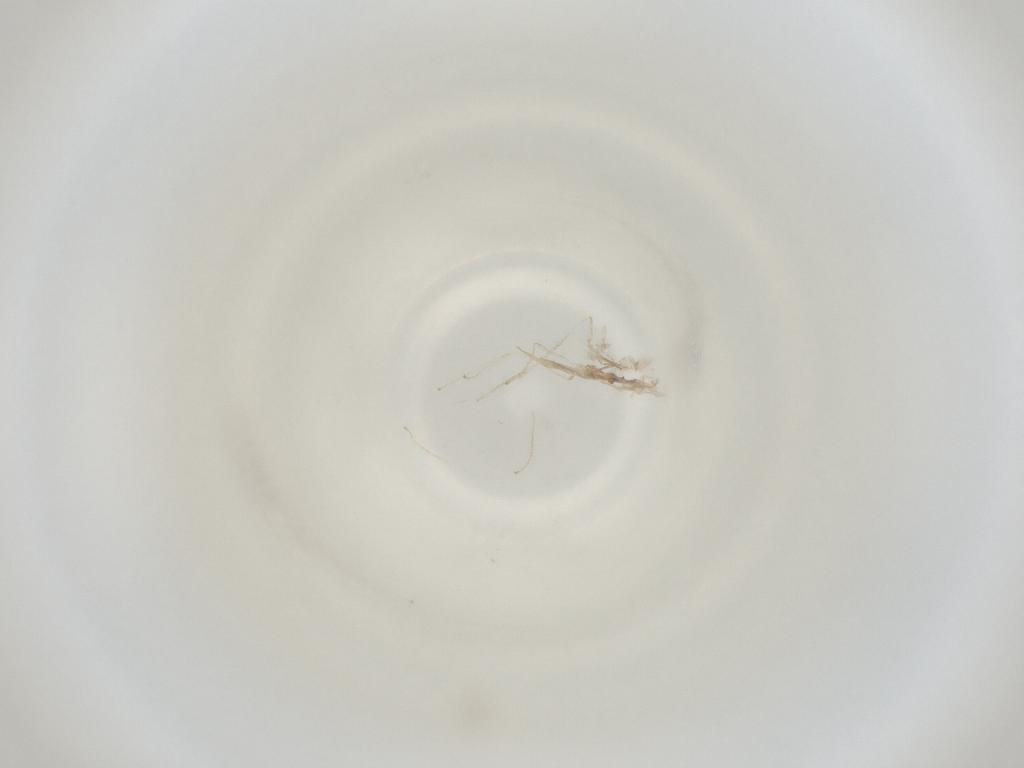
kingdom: Animalia
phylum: Arthropoda
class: Insecta
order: Diptera
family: Cecidomyiidae
